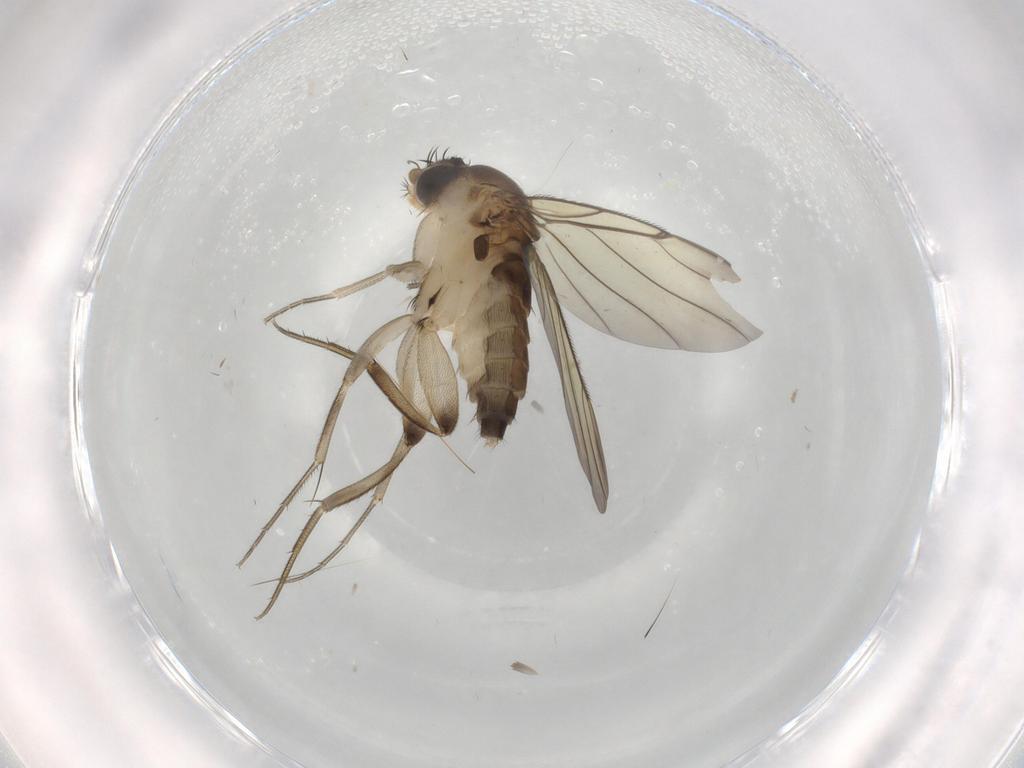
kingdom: Animalia
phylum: Arthropoda
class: Insecta
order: Diptera
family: Phoridae
